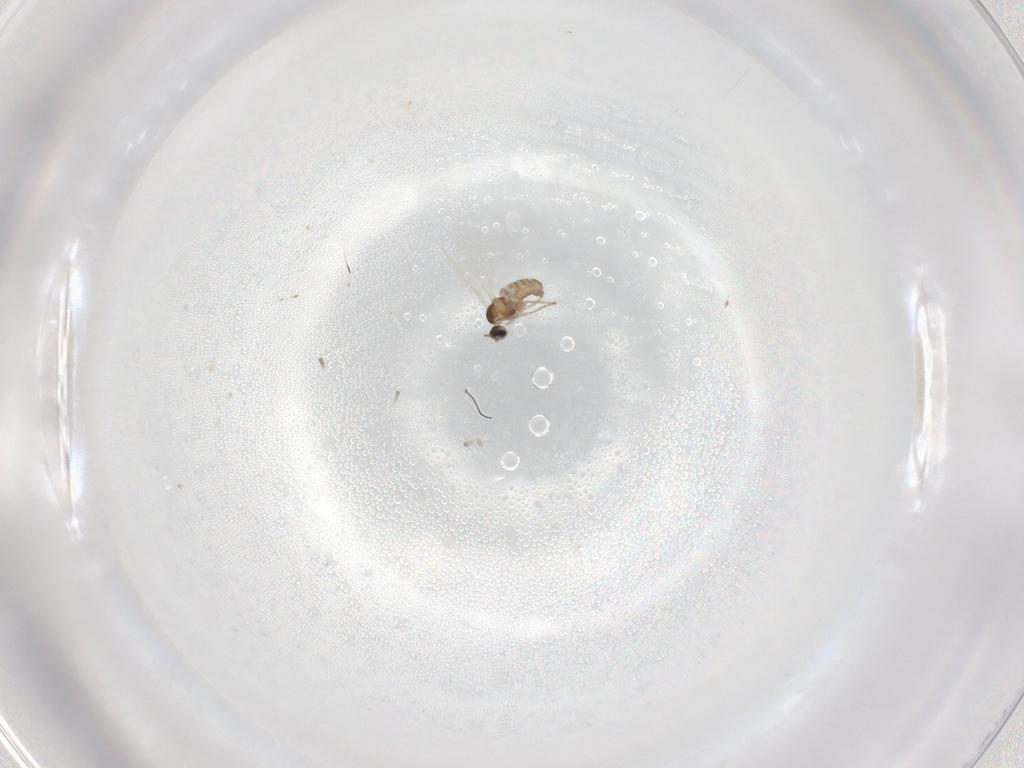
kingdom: Animalia
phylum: Arthropoda
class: Insecta
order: Diptera
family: Cecidomyiidae
